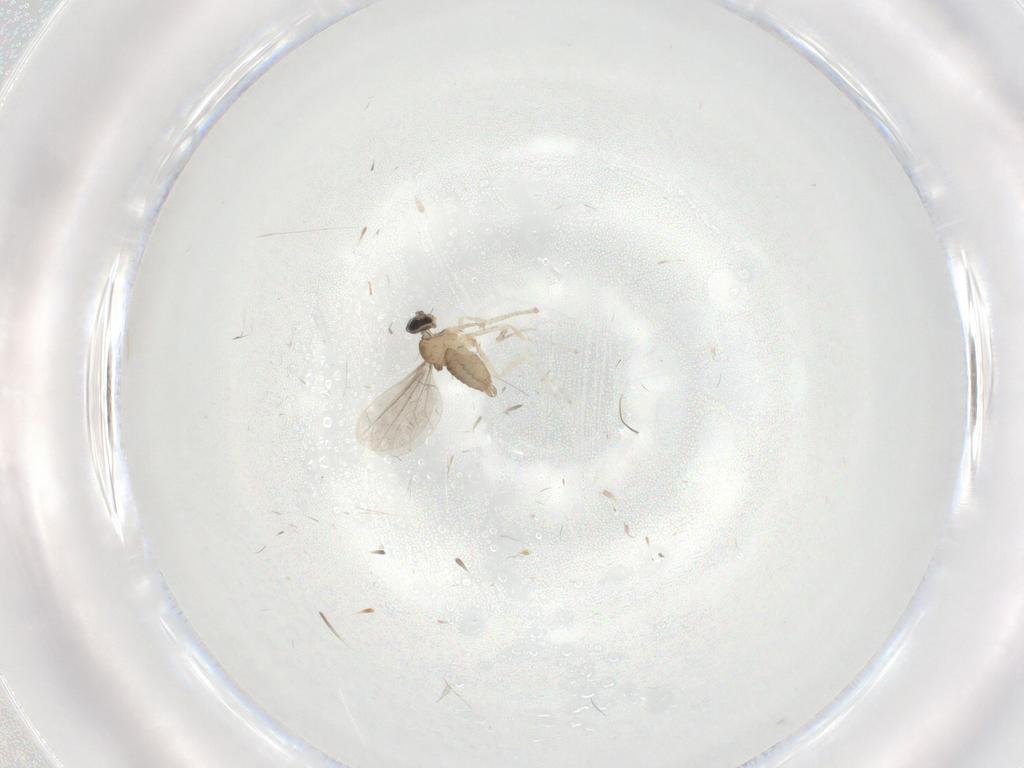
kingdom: Animalia
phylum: Arthropoda
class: Insecta
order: Diptera
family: Cecidomyiidae
